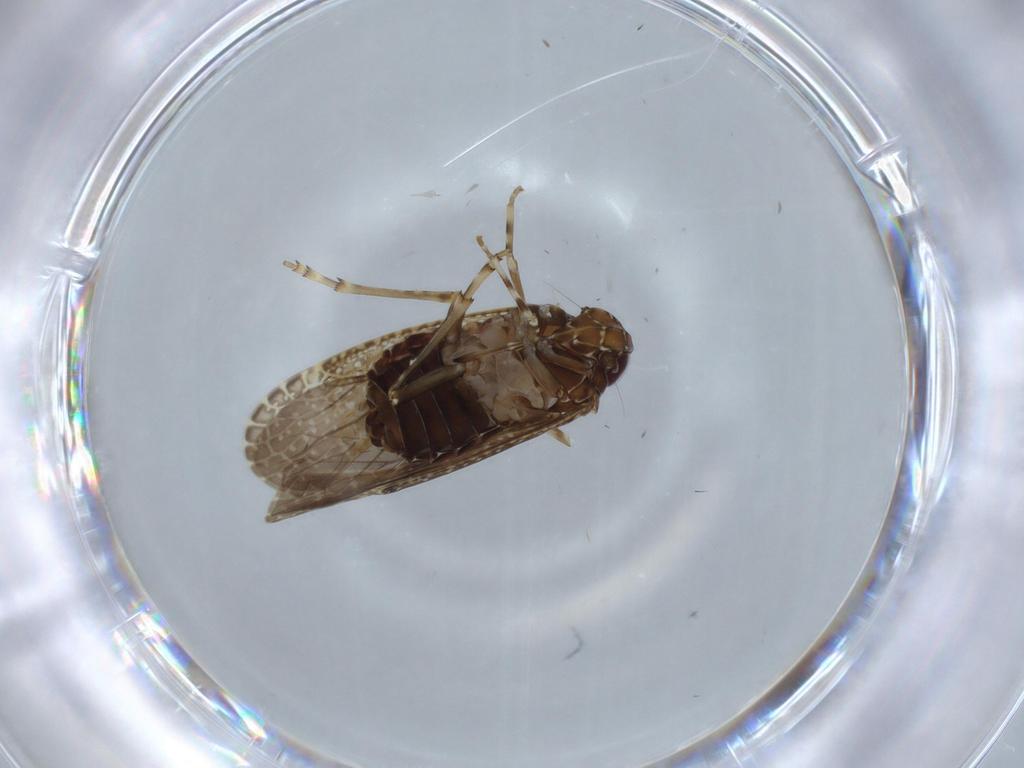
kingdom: Animalia
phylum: Arthropoda
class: Insecta
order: Hemiptera
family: Achilidae
